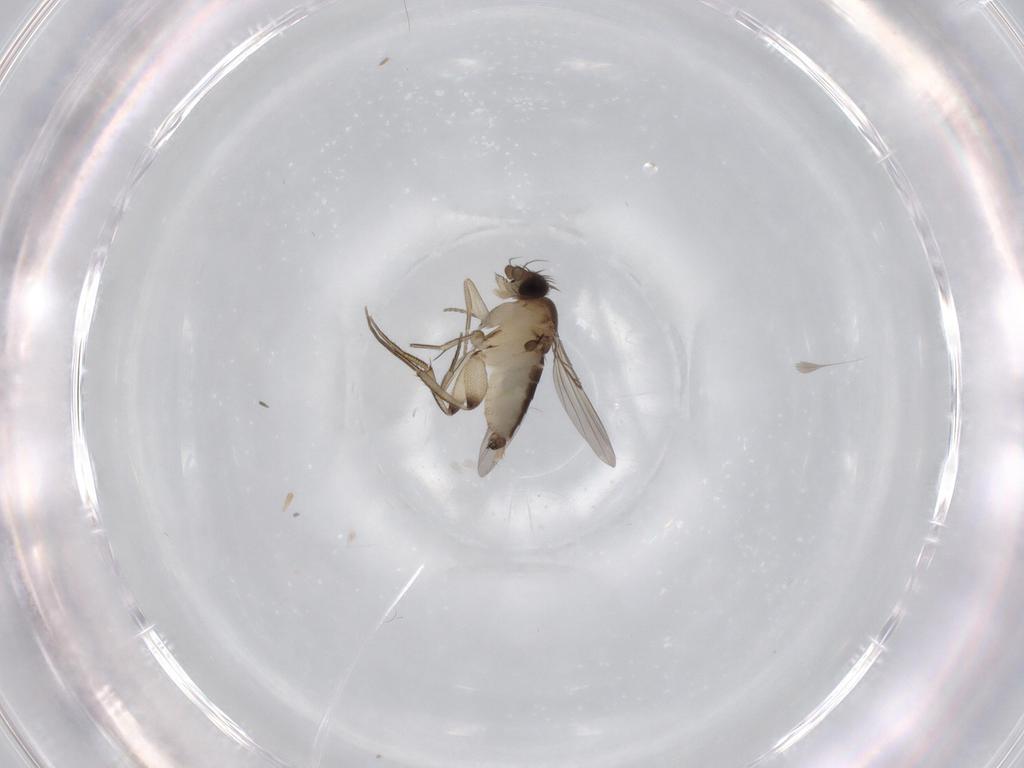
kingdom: Animalia
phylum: Arthropoda
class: Insecta
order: Diptera
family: Phoridae
